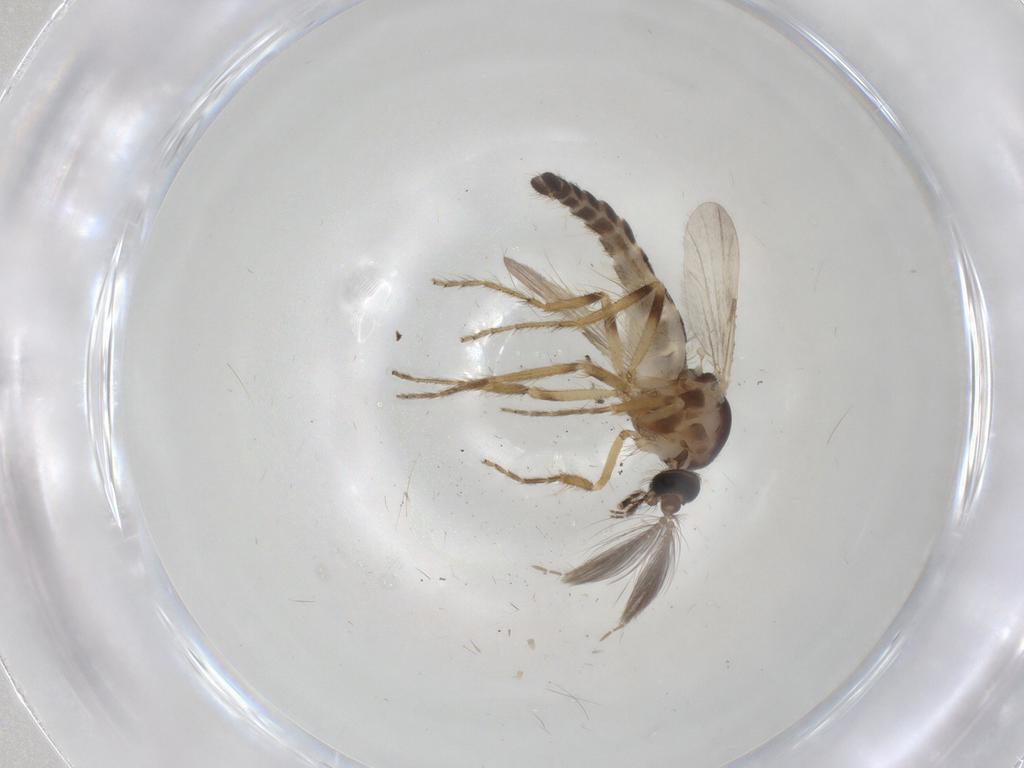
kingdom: Animalia
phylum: Arthropoda
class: Insecta
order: Diptera
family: Ceratopogonidae
